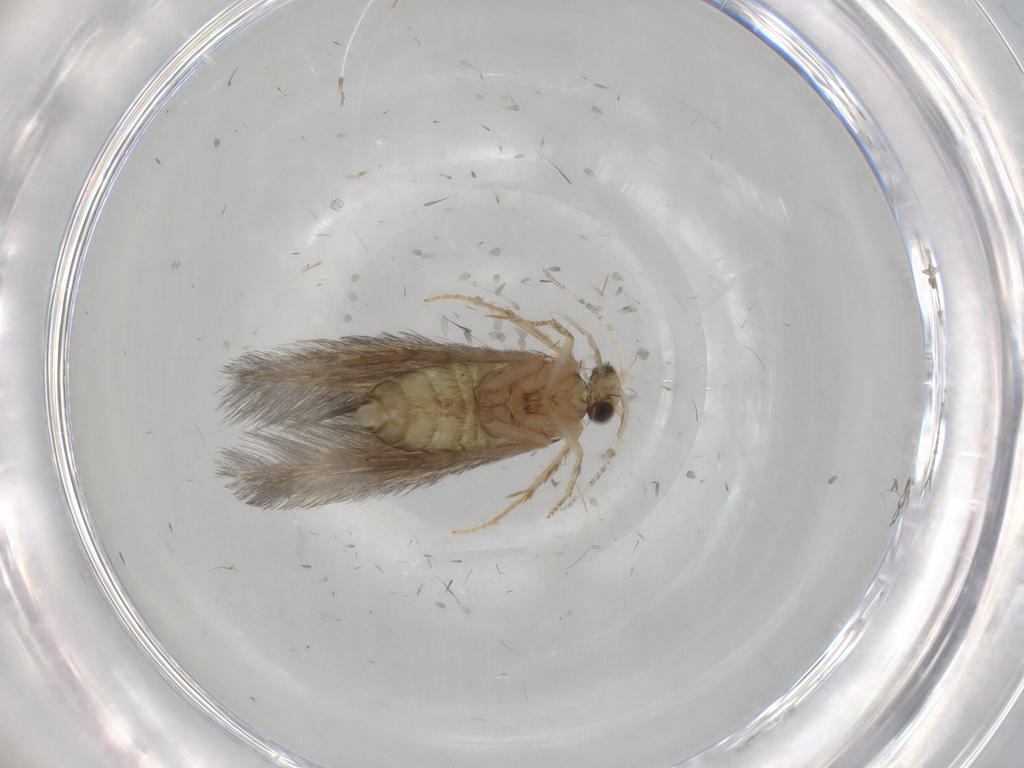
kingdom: Animalia
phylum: Arthropoda
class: Insecta
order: Trichoptera
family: Hydroptilidae
